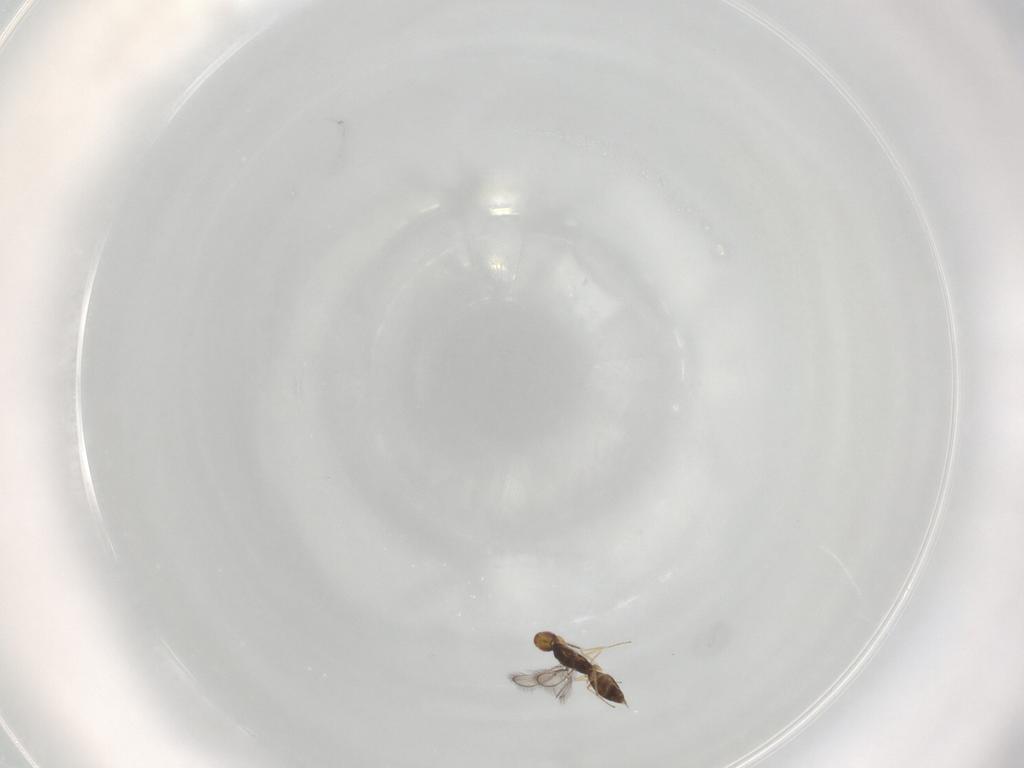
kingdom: Animalia
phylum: Arthropoda
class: Insecta
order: Hymenoptera
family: Eulophidae
